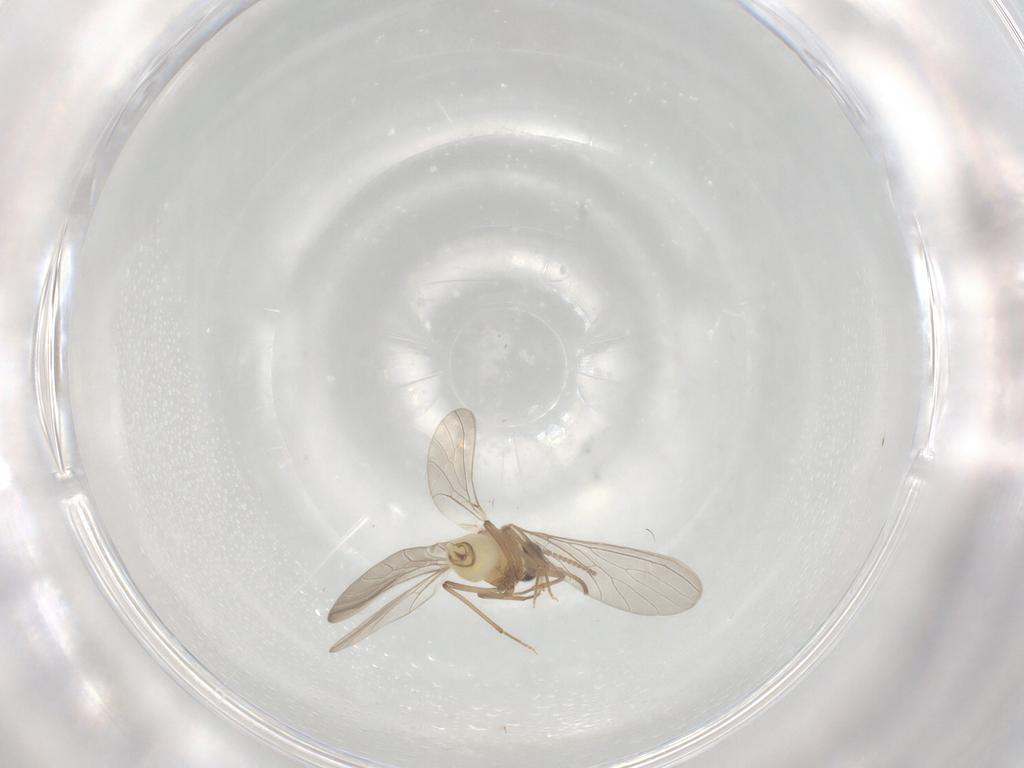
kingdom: Animalia
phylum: Arthropoda
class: Insecta
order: Neuroptera
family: Coniopterygidae
